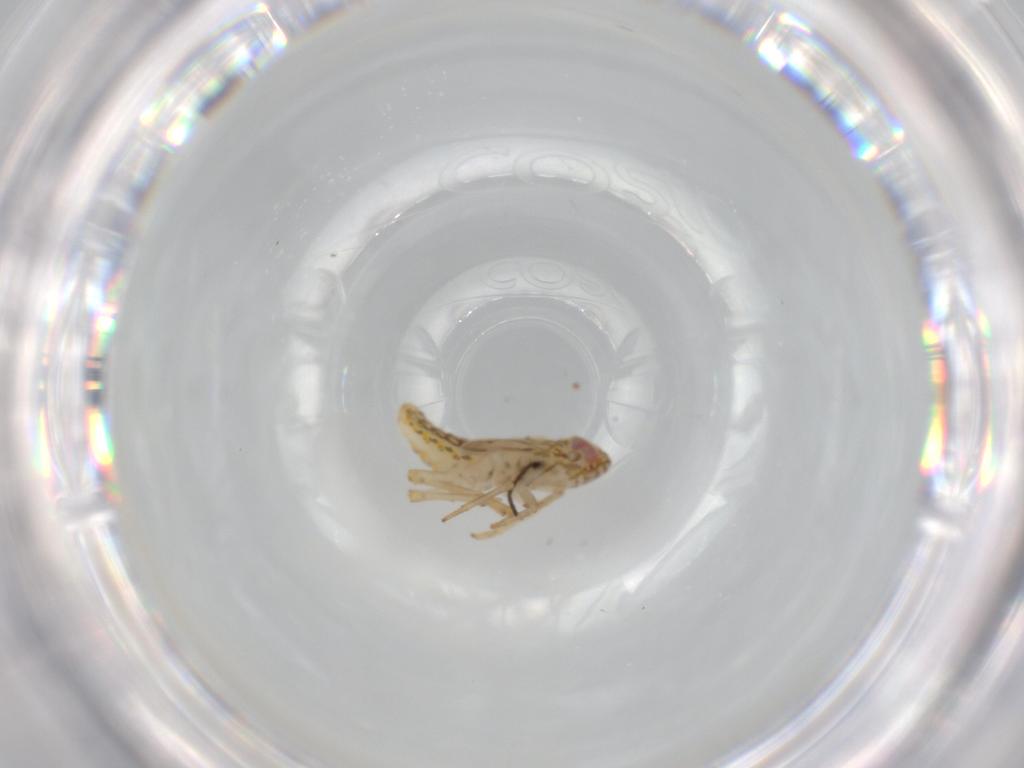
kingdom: Animalia
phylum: Arthropoda
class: Insecta
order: Hemiptera
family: Delphacidae
